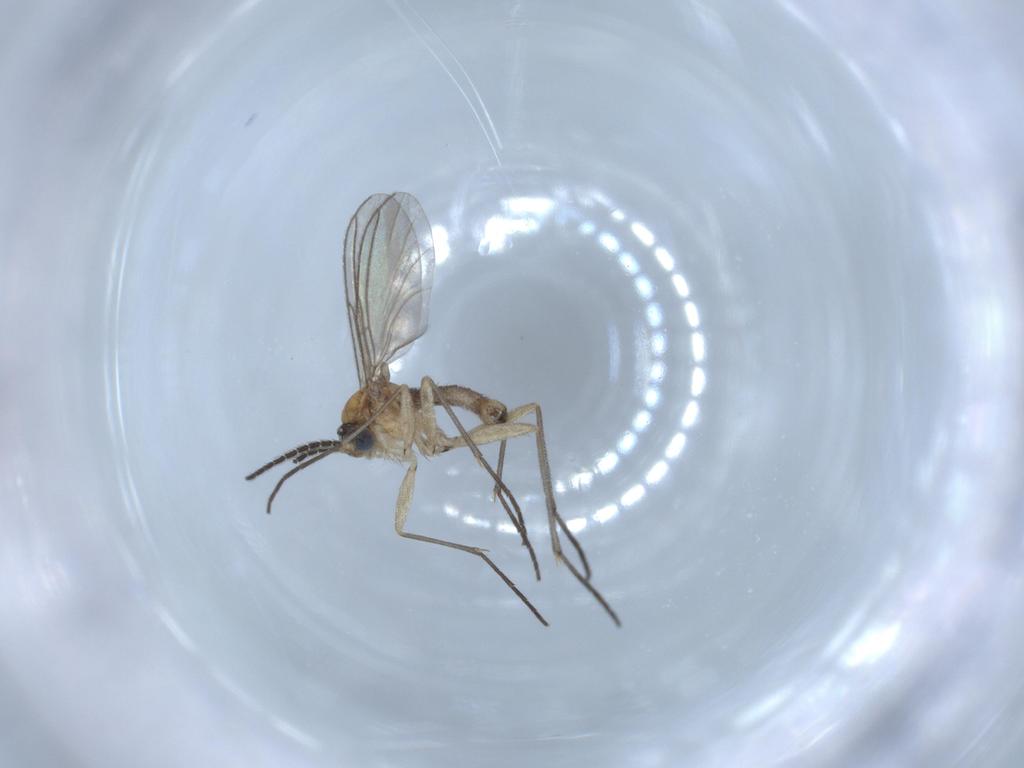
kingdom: Animalia
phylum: Arthropoda
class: Insecta
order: Diptera
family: Sciaridae
